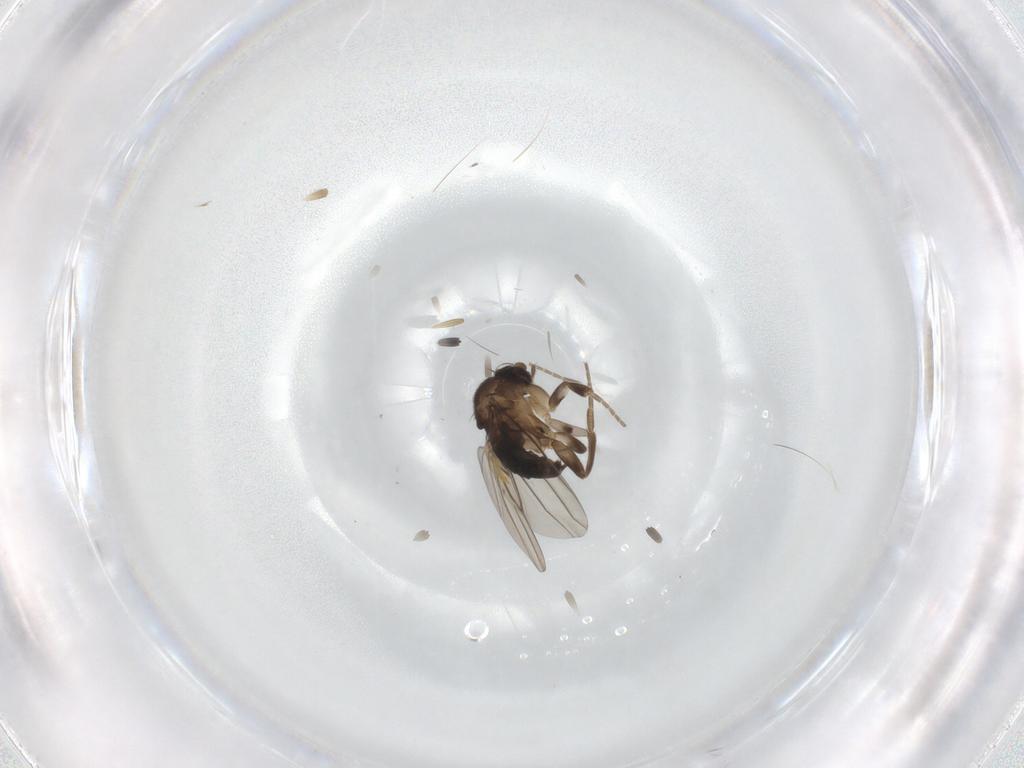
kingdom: Animalia
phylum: Arthropoda
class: Insecta
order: Diptera
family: Phoridae
